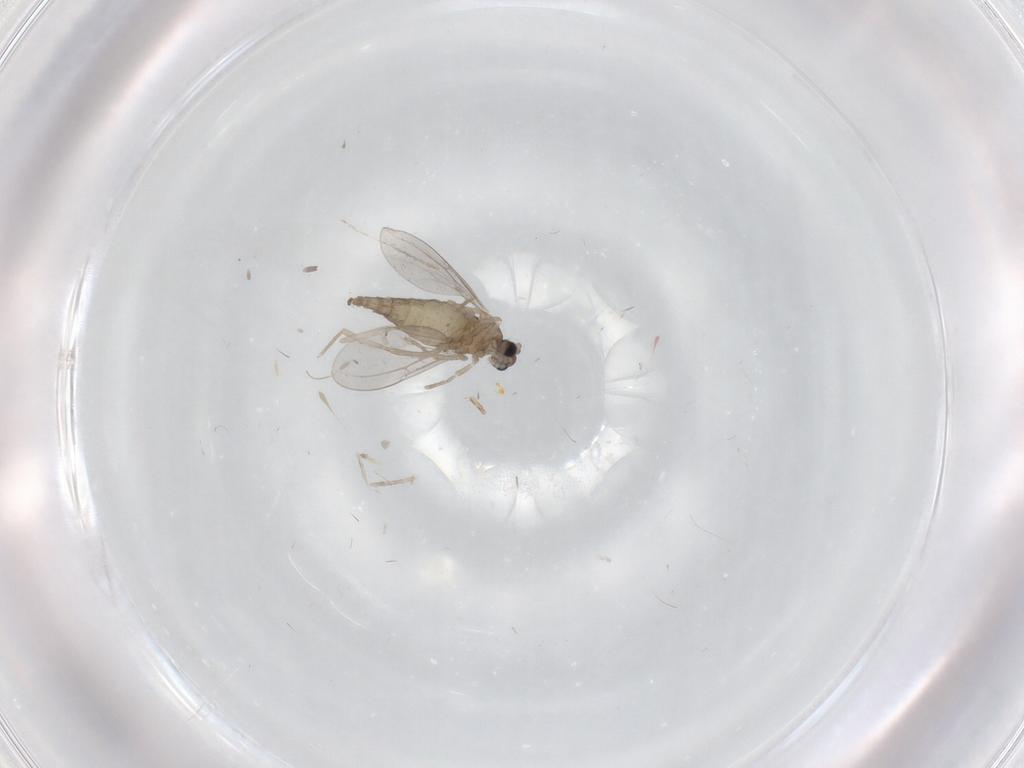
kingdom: Animalia
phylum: Arthropoda
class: Insecta
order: Diptera
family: Cecidomyiidae
